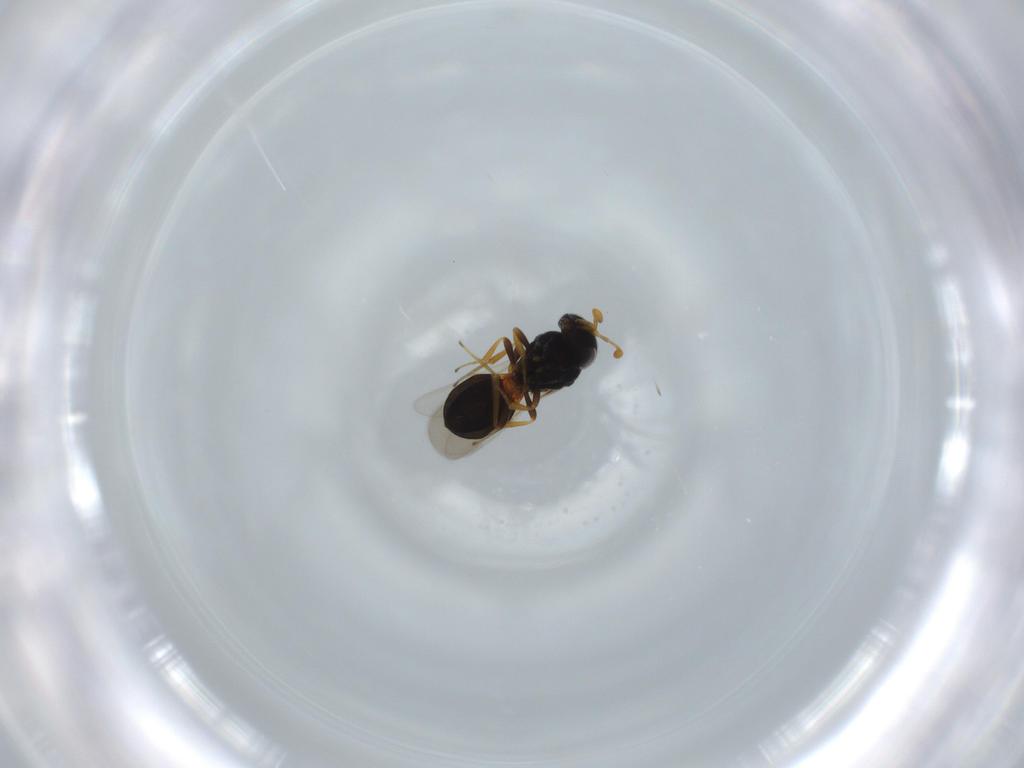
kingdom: Animalia
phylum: Arthropoda
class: Insecta
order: Hymenoptera
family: Scelionidae
